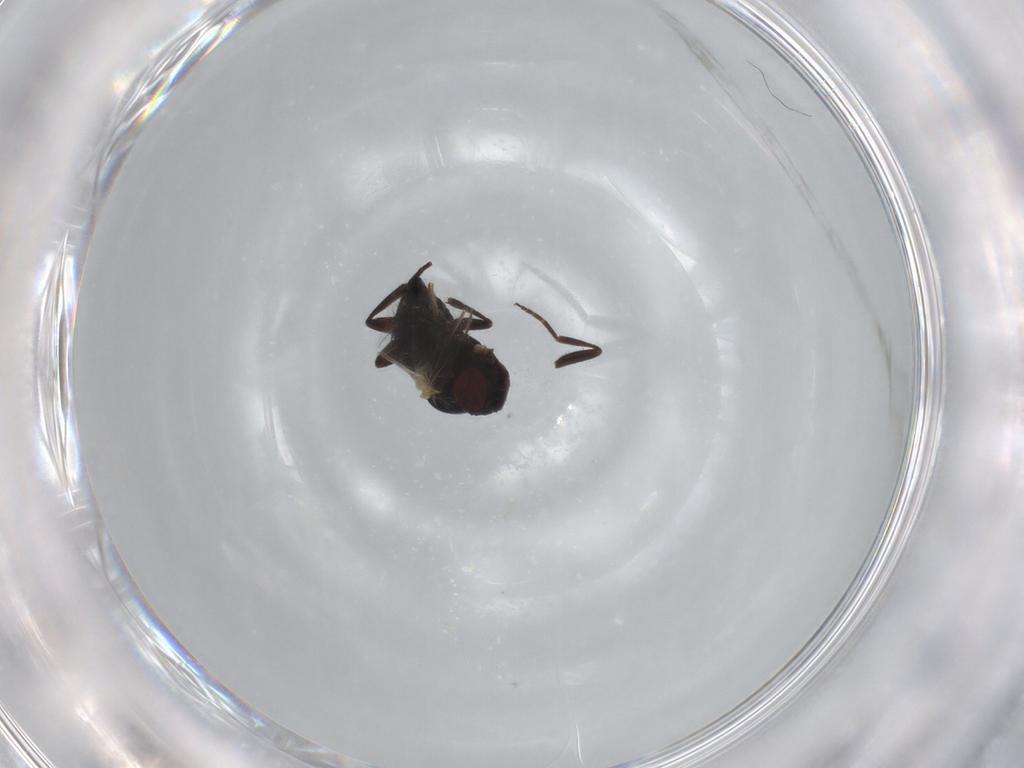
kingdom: Animalia
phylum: Arthropoda
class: Insecta
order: Diptera
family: Agromyzidae
